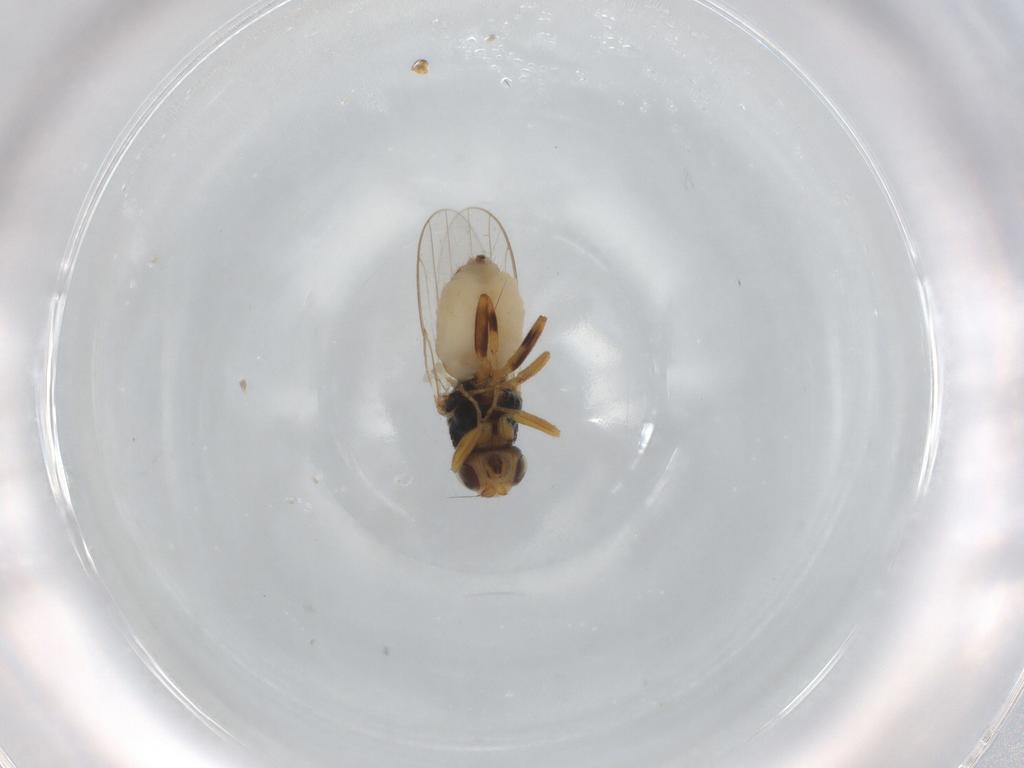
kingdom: Animalia
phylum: Arthropoda
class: Insecta
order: Diptera
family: Chloropidae
